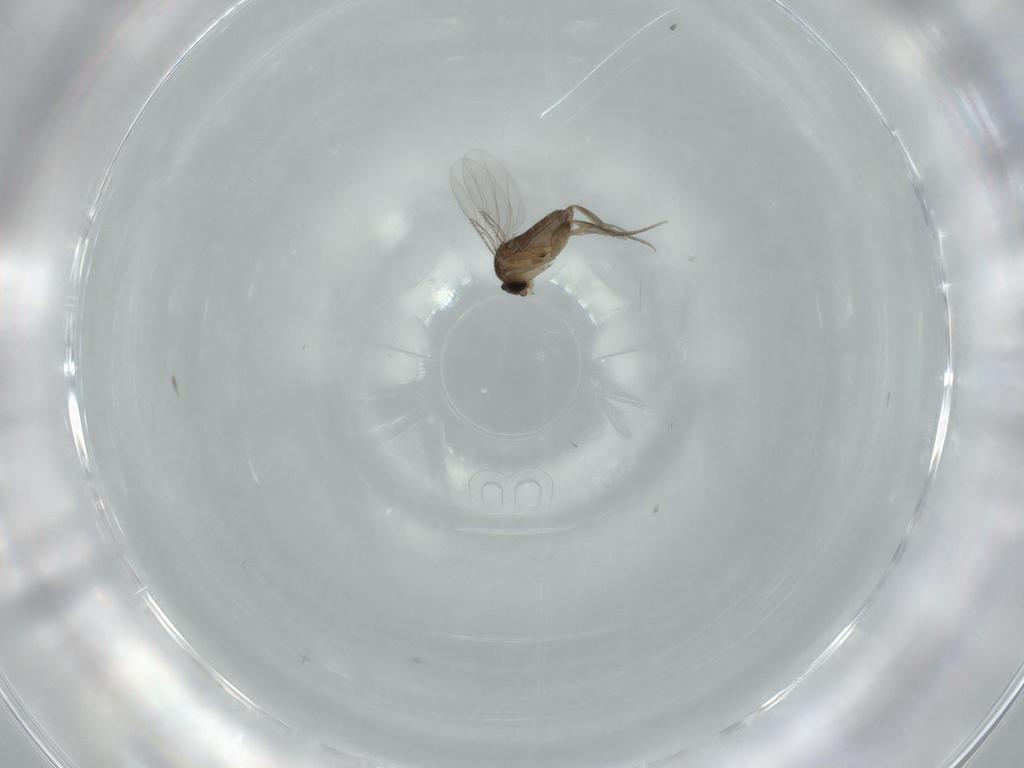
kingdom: Animalia
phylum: Arthropoda
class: Insecta
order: Diptera
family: Phoridae
